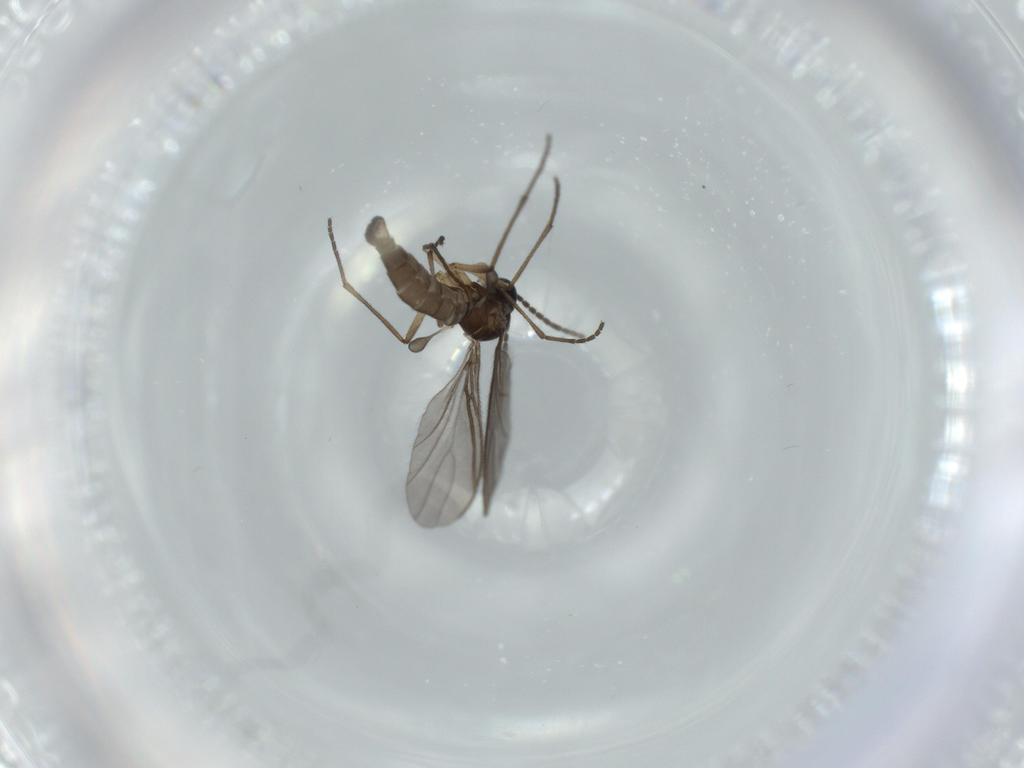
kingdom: Animalia
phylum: Arthropoda
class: Insecta
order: Diptera
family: Sciaridae
